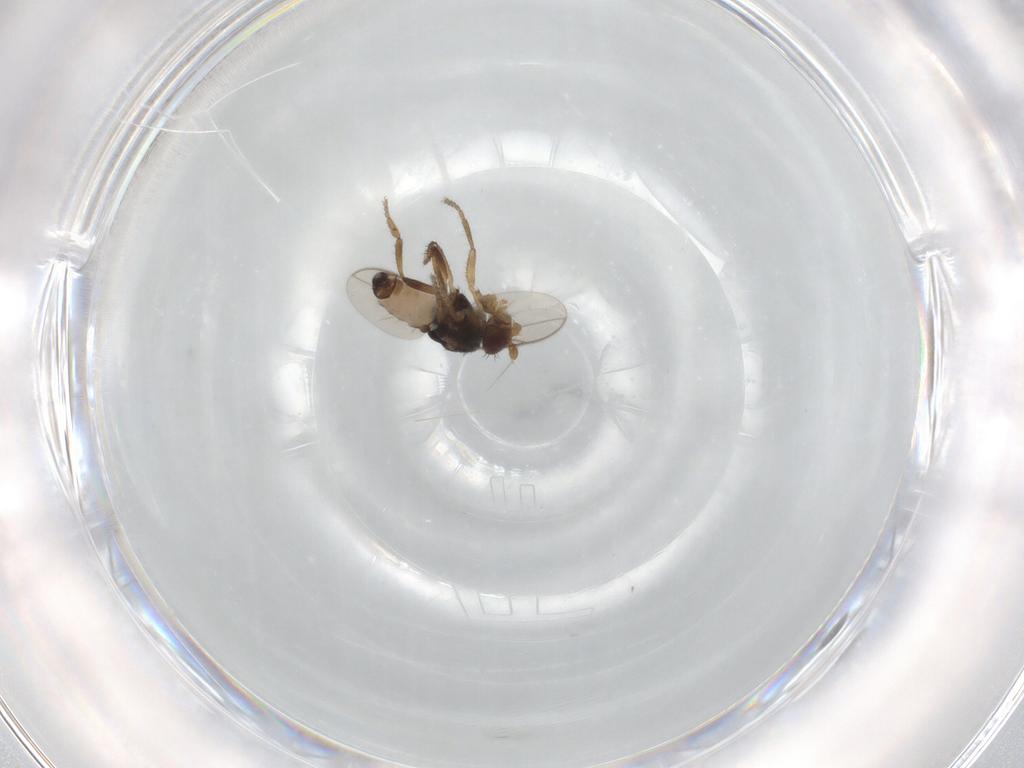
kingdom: Animalia
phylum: Arthropoda
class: Insecta
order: Diptera
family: Sphaeroceridae
